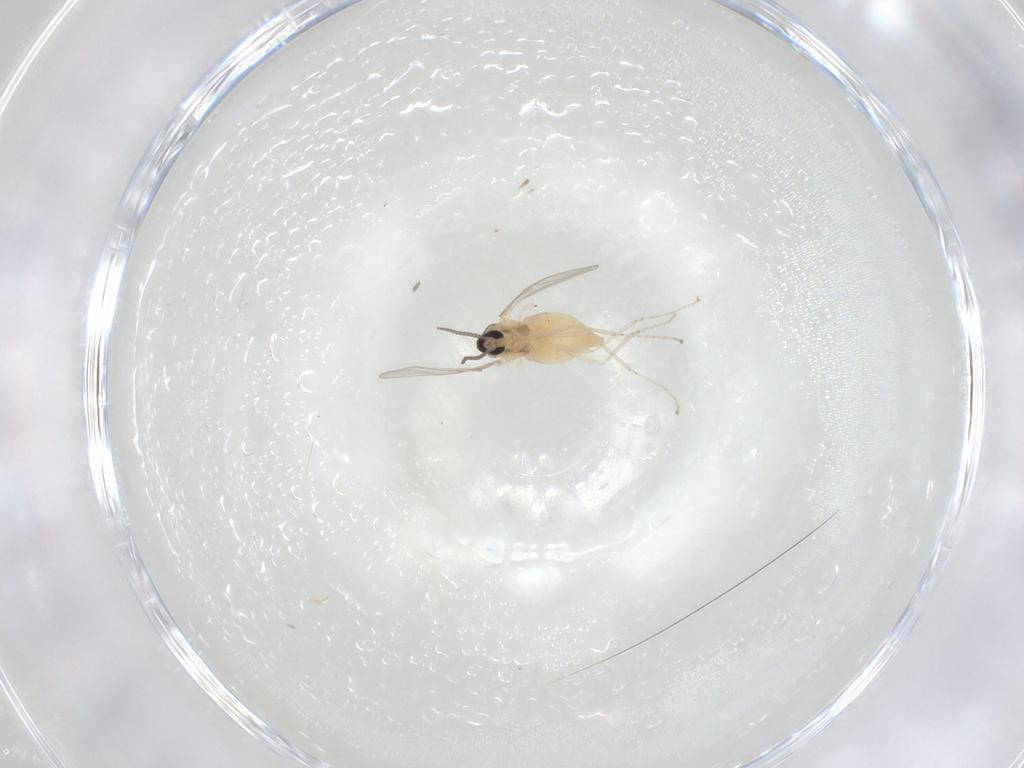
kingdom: Animalia
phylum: Arthropoda
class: Insecta
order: Diptera
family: Cecidomyiidae
